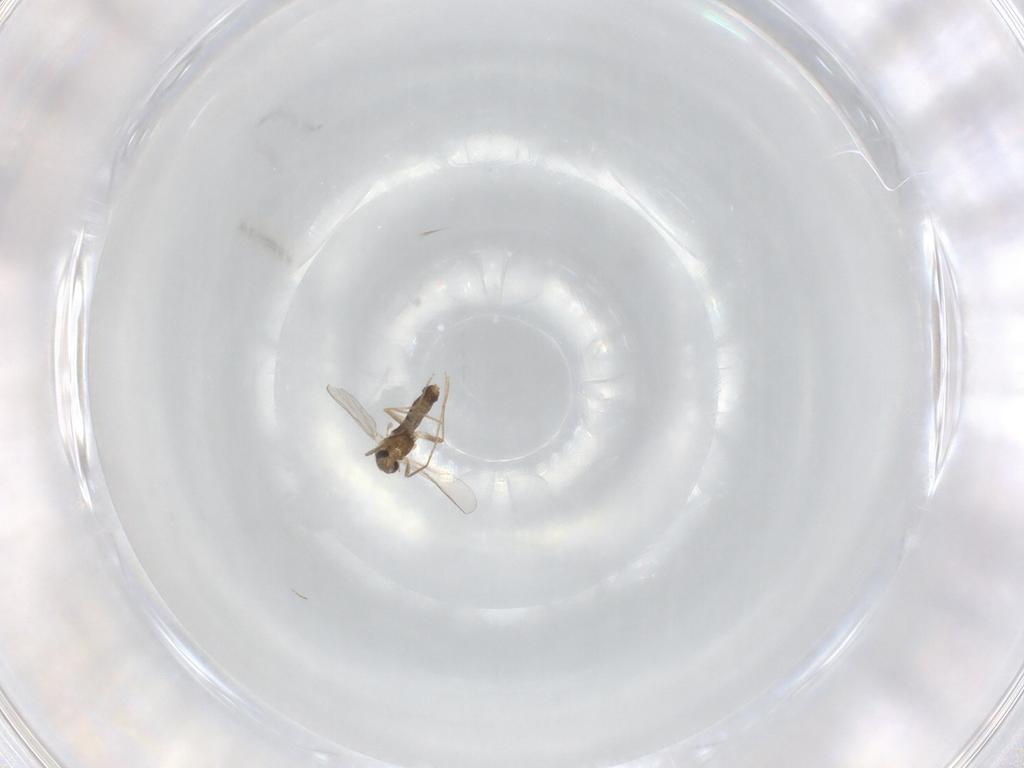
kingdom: Animalia
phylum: Arthropoda
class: Insecta
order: Diptera
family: Chironomidae
